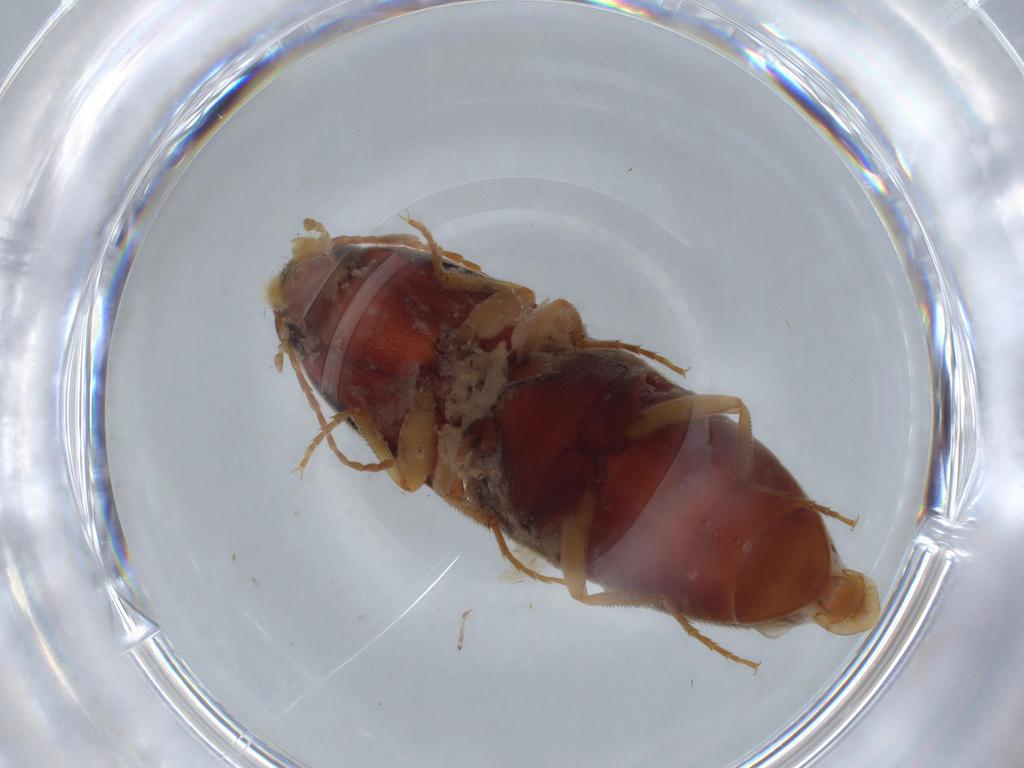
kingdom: Animalia
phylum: Arthropoda
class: Insecta
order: Coleoptera
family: Elateridae
